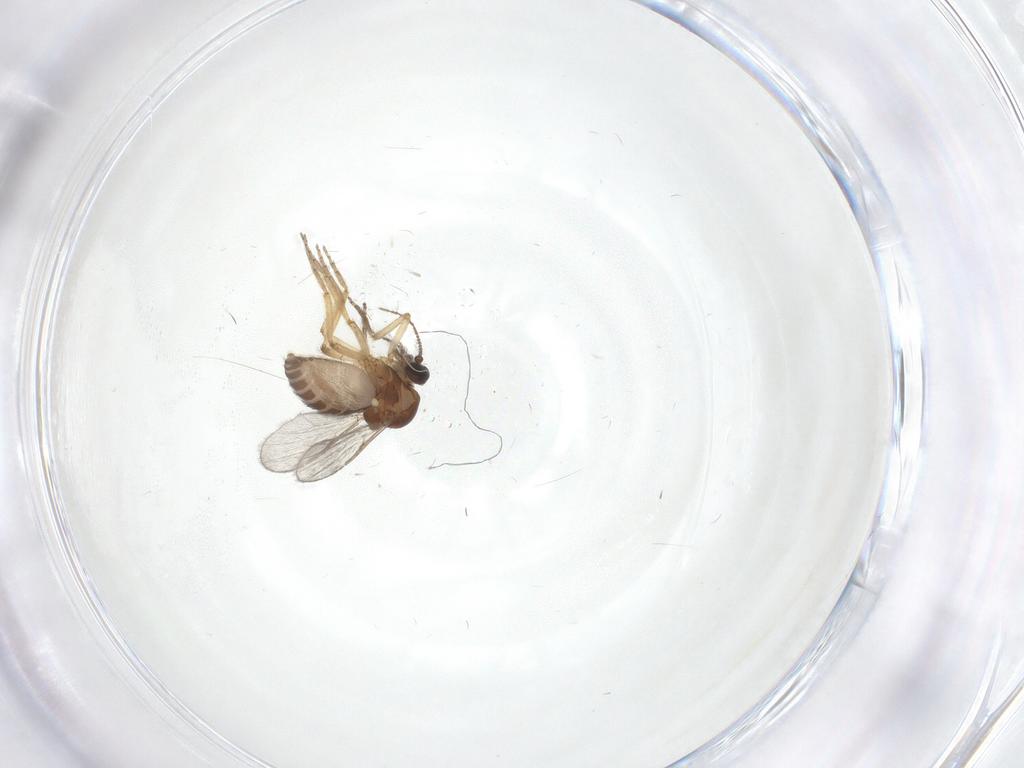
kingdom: Animalia
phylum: Arthropoda
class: Insecta
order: Diptera
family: Ceratopogonidae
